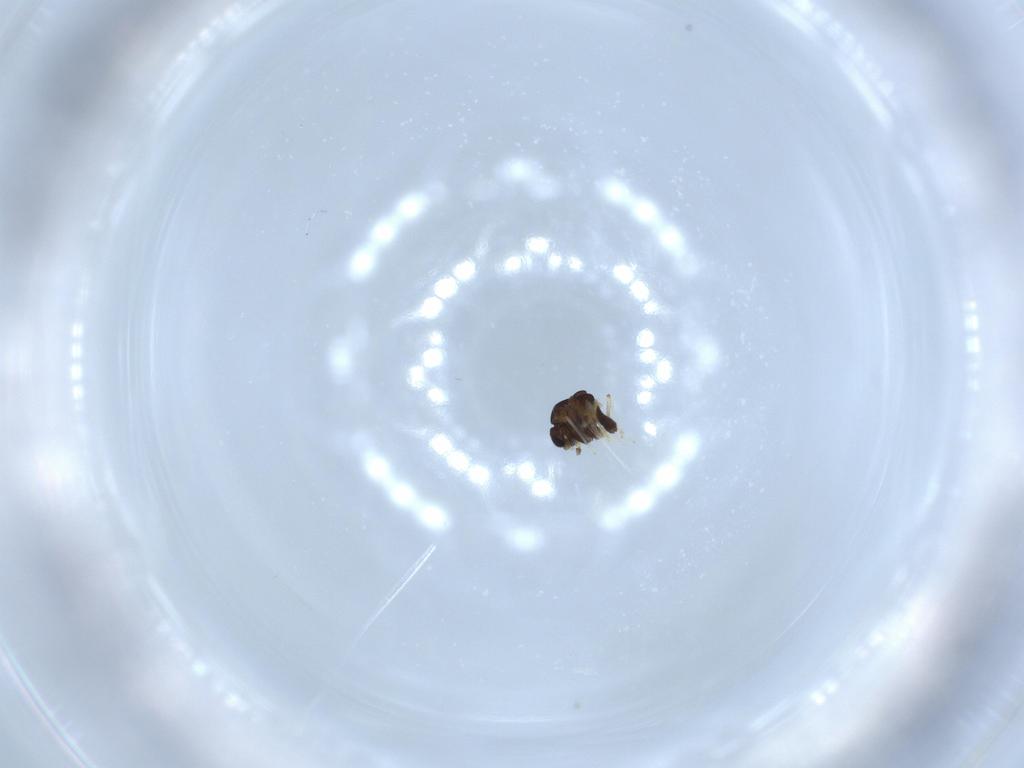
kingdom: Animalia
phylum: Arthropoda
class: Insecta
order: Diptera
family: Chironomidae
